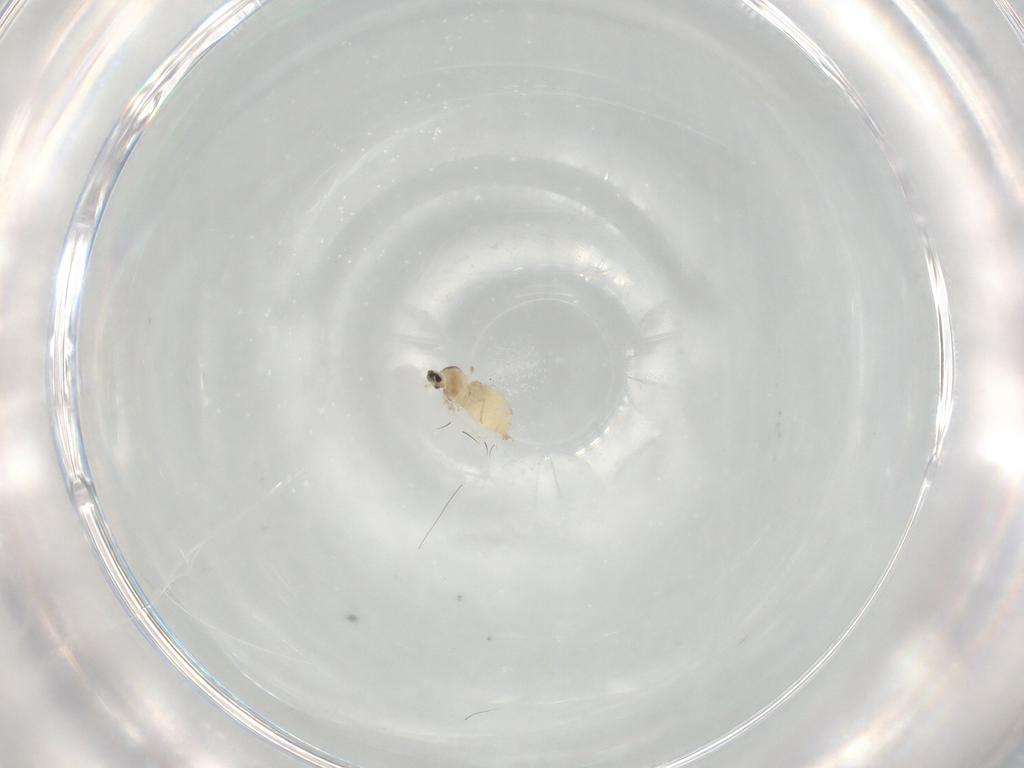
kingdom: Animalia
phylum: Arthropoda
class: Insecta
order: Diptera
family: Cecidomyiidae
